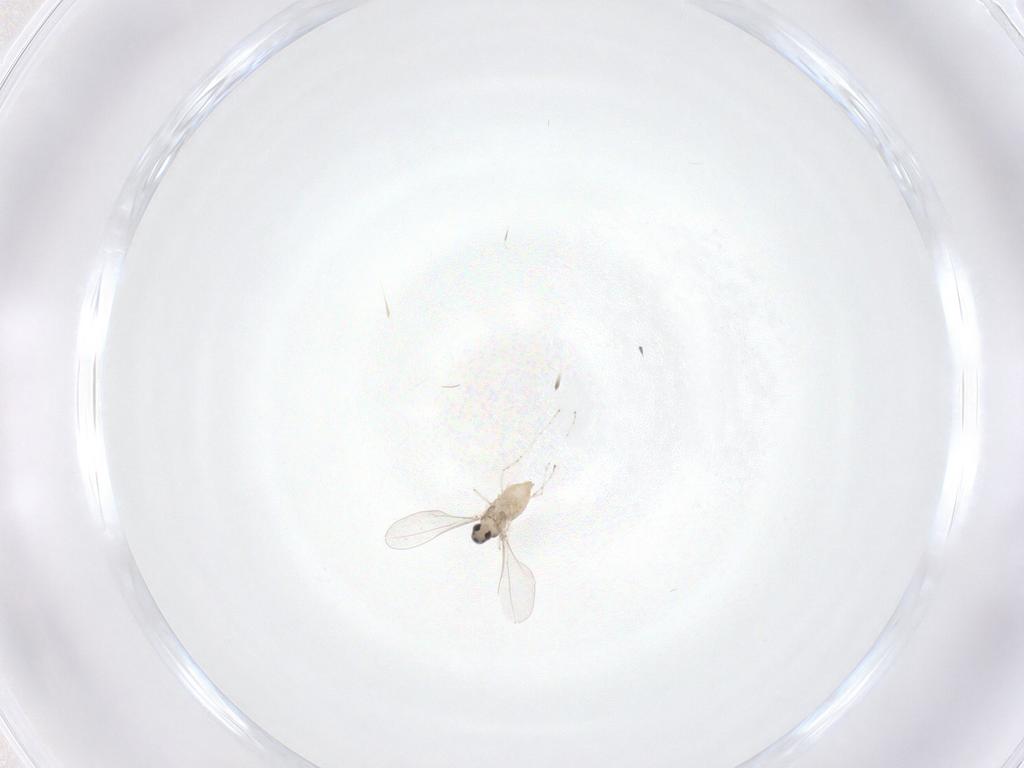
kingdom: Animalia
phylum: Arthropoda
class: Insecta
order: Diptera
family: Cecidomyiidae
